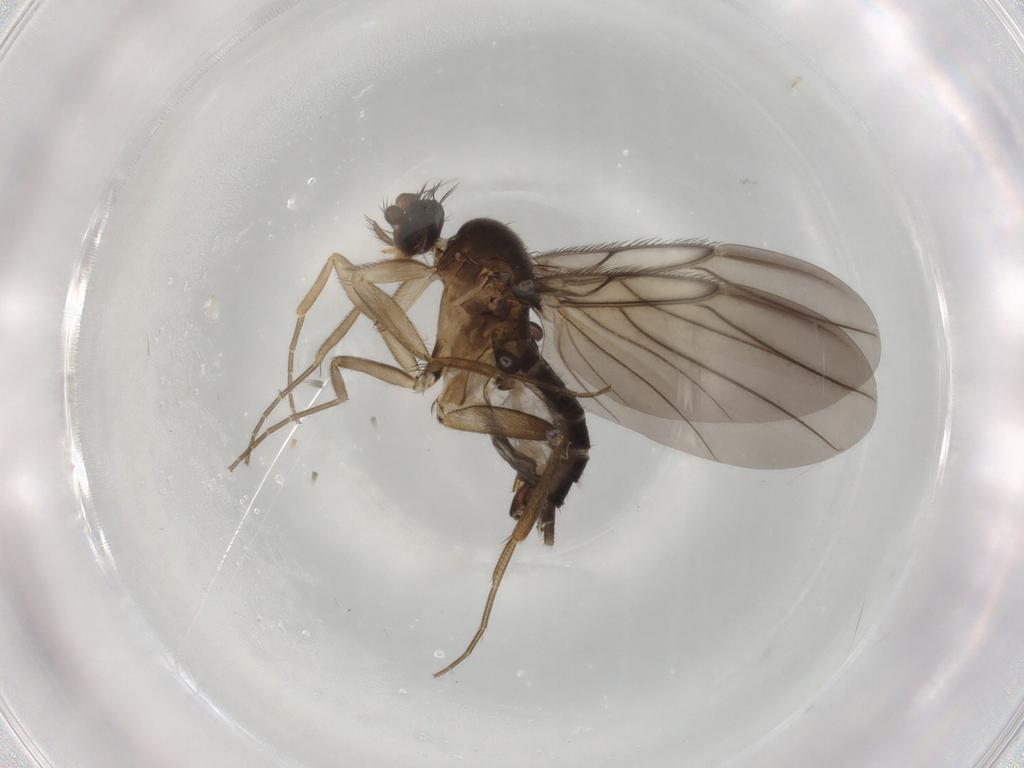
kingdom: Animalia
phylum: Arthropoda
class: Insecta
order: Diptera
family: Phoridae
